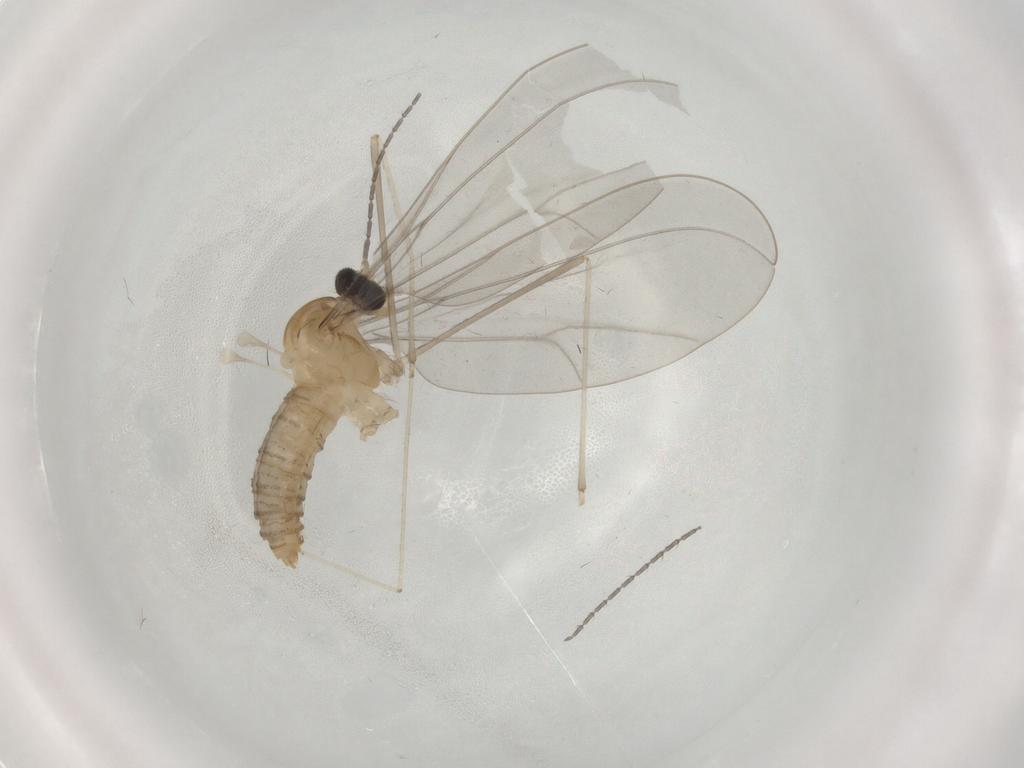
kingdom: Animalia
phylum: Arthropoda
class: Insecta
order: Diptera
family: Cecidomyiidae
